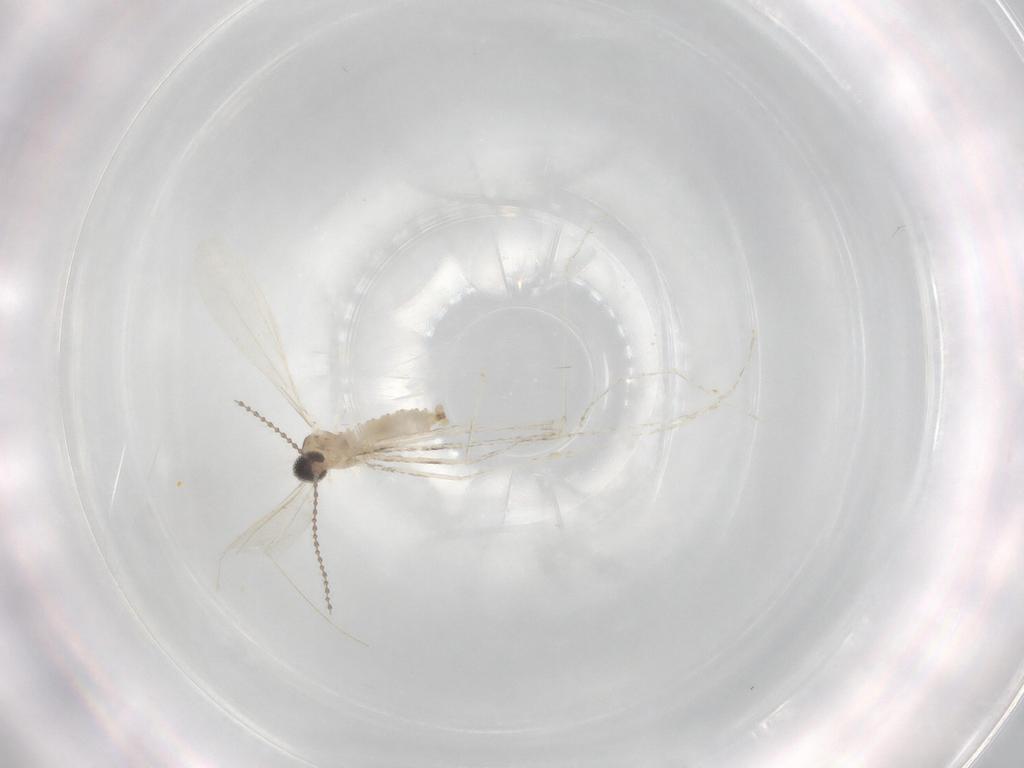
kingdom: Animalia
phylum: Arthropoda
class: Insecta
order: Diptera
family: Cecidomyiidae
